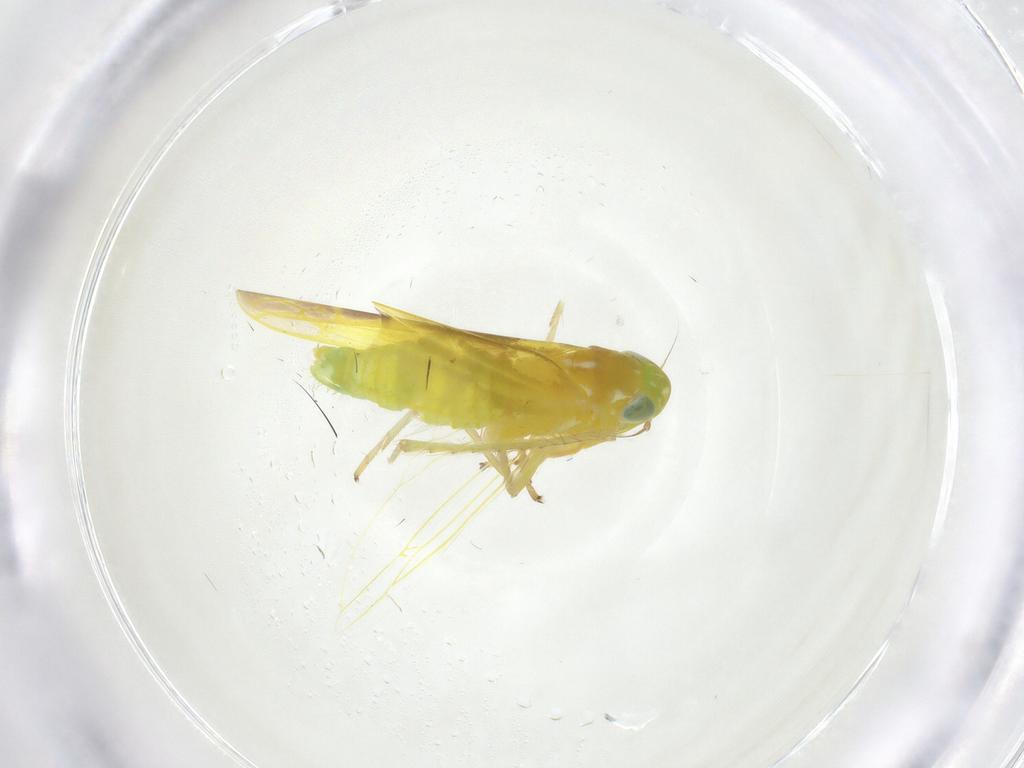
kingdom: Animalia
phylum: Arthropoda
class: Insecta
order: Hemiptera
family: Cicadellidae
